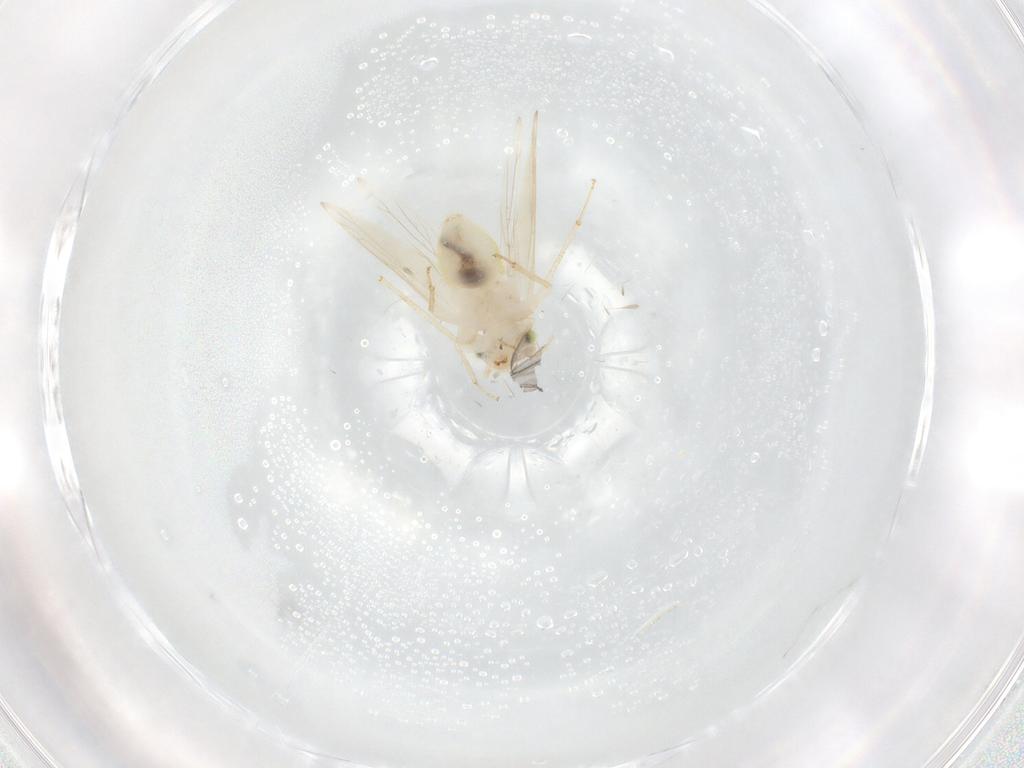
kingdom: Animalia
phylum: Arthropoda
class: Insecta
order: Psocodea
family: Lepidopsocidae
